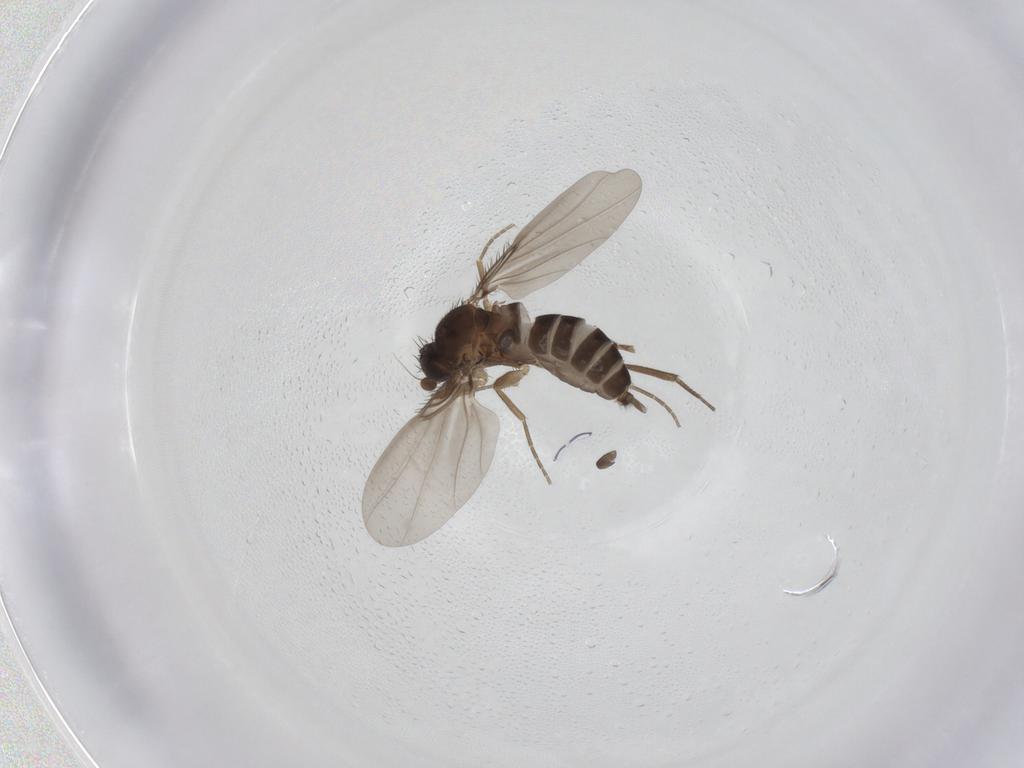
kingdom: Animalia
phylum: Arthropoda
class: Insecta
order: Diptera
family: Phoridae
